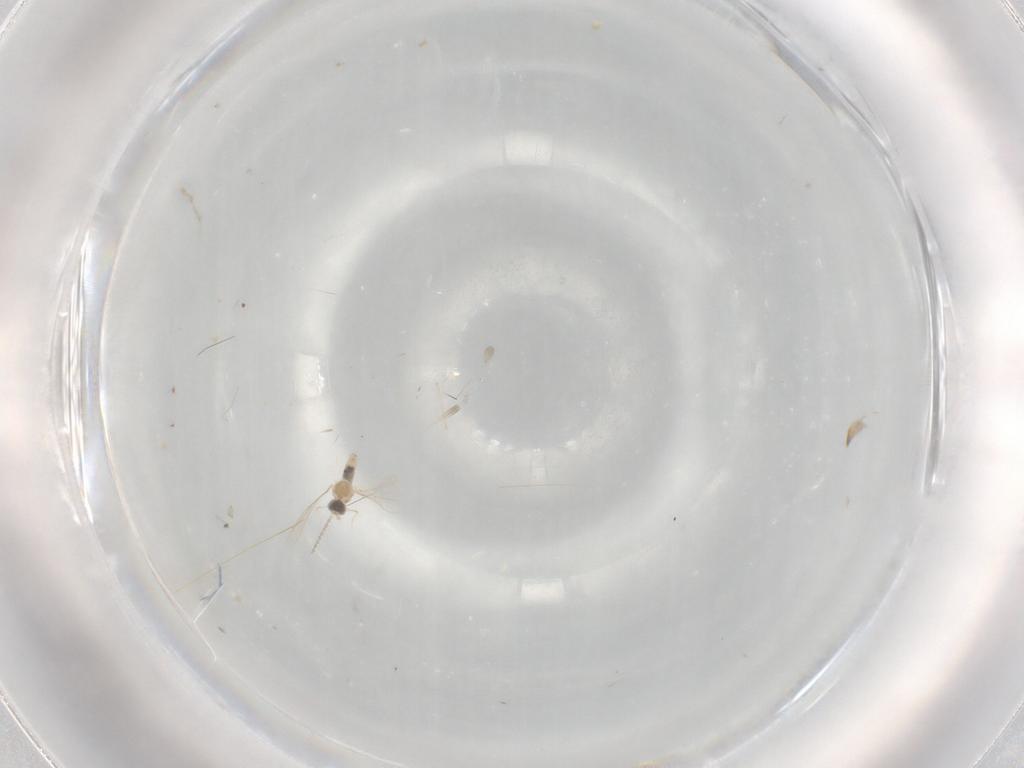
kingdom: Animalia
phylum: Arthropoda
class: Insecta
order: Diptera
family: Cecidomyiidae
